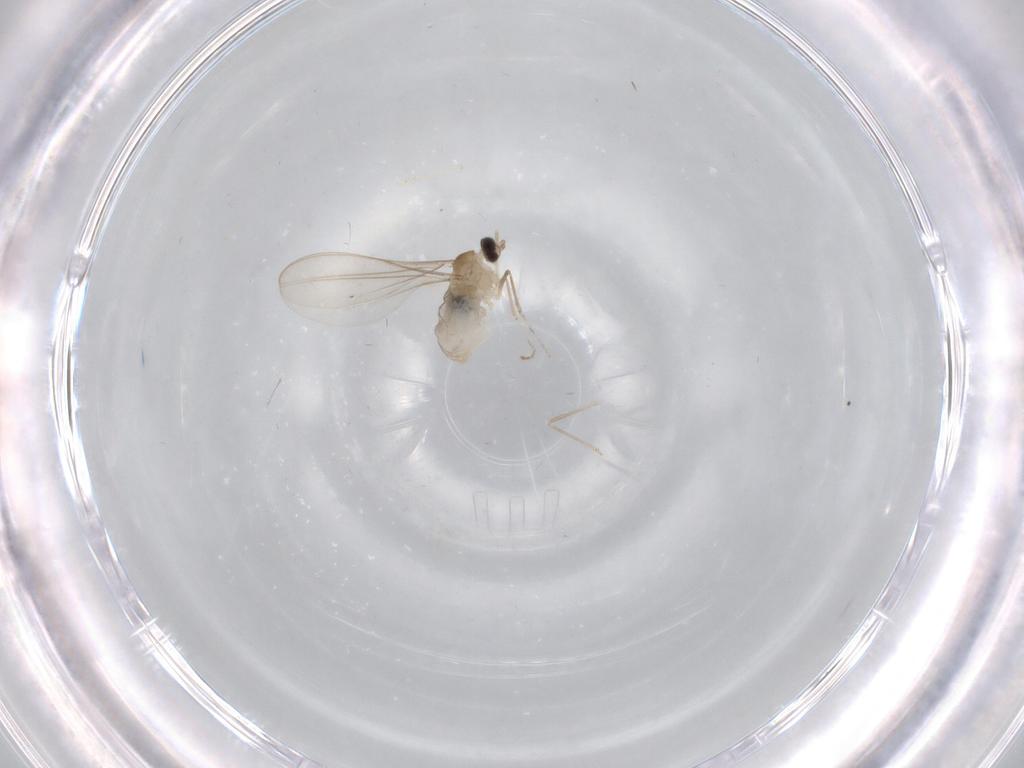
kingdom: Animalia
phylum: Arthropoda
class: Insecta
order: Diptera
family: Cecidomyiidae
